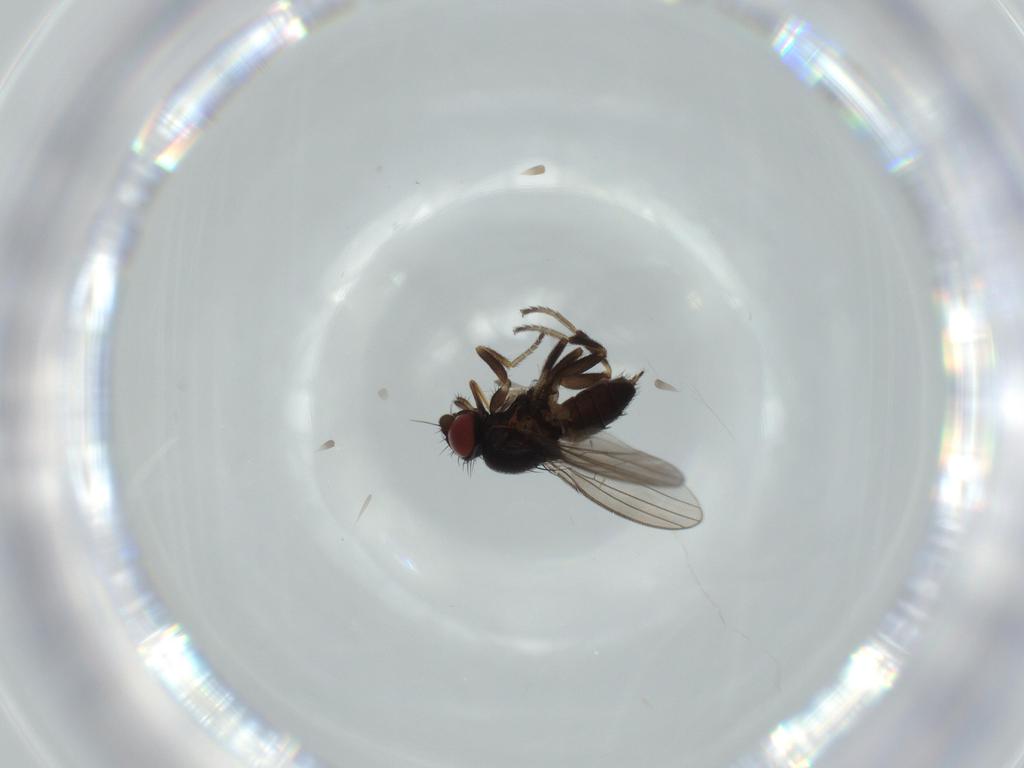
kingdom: Animalia
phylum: Arthropoda
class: Insecta
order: Diptera
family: Milichiidae
